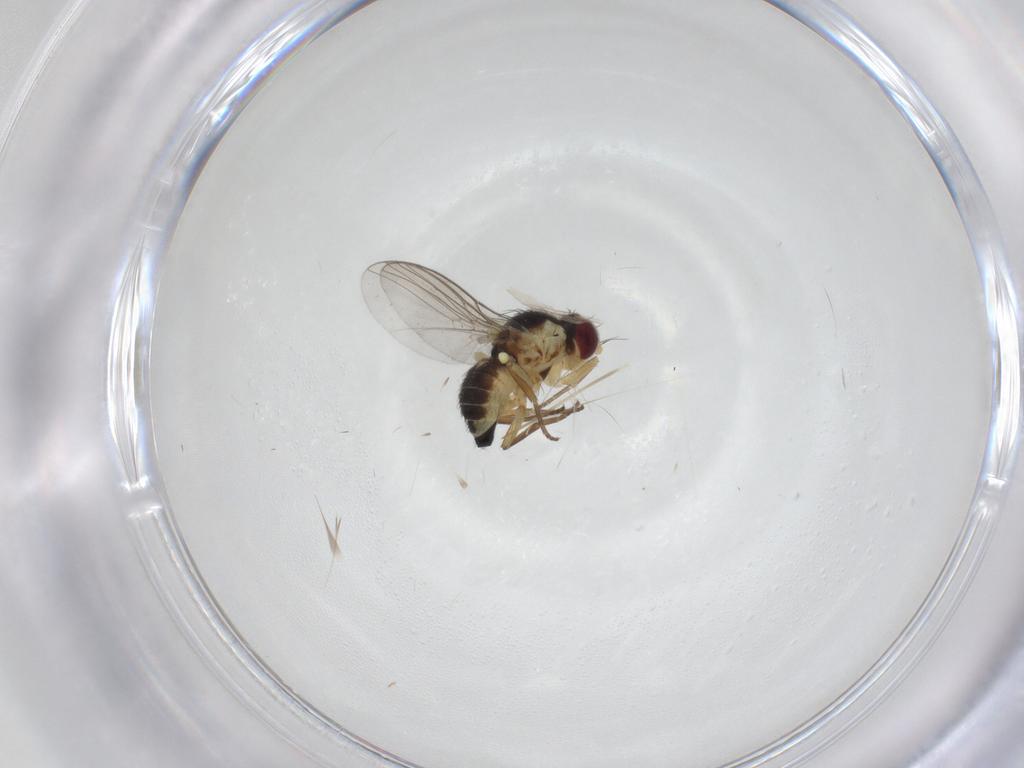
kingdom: Animalia
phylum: Arthropoda
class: Insecta
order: Diptera
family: Agromyzidae
